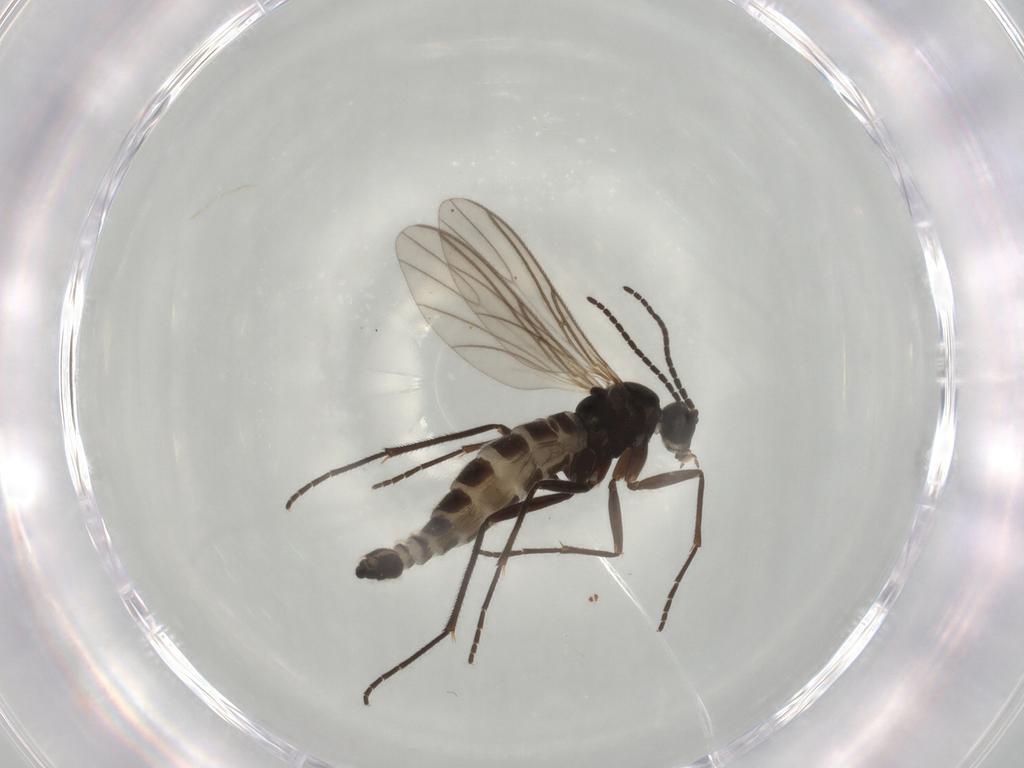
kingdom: Animalia
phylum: Arthropoda
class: Insecta
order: Diptera
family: Sciaridae
